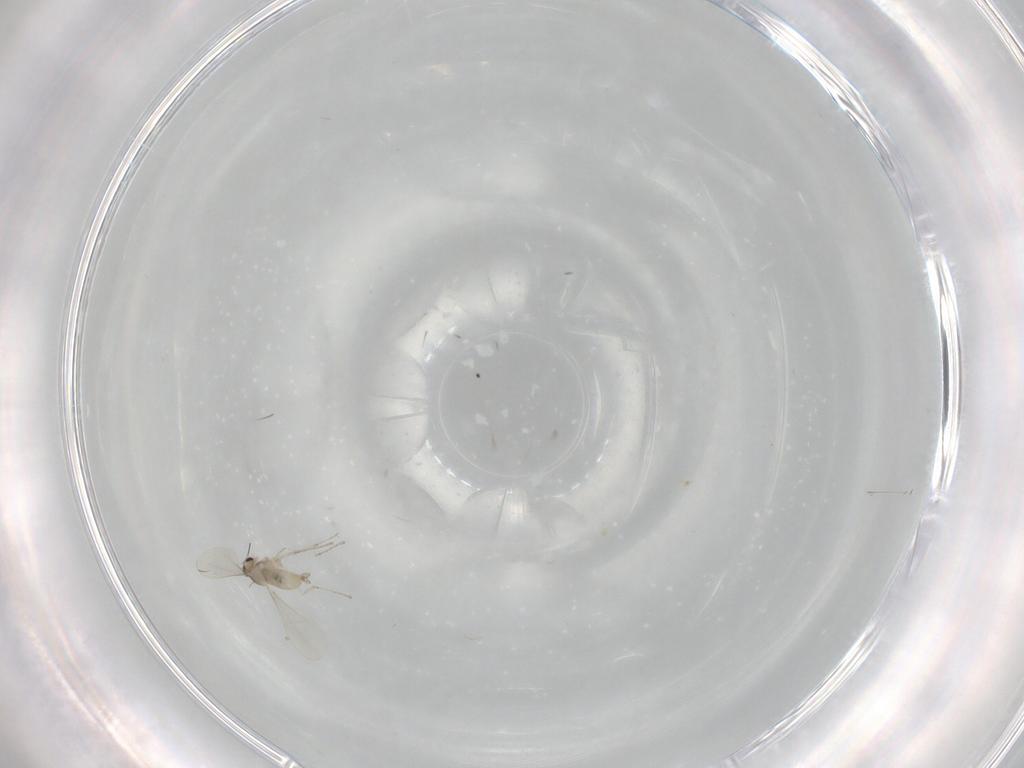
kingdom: Animalia
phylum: Arthropoda
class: Insecta
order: Diptera
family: Cecidomyiidae
